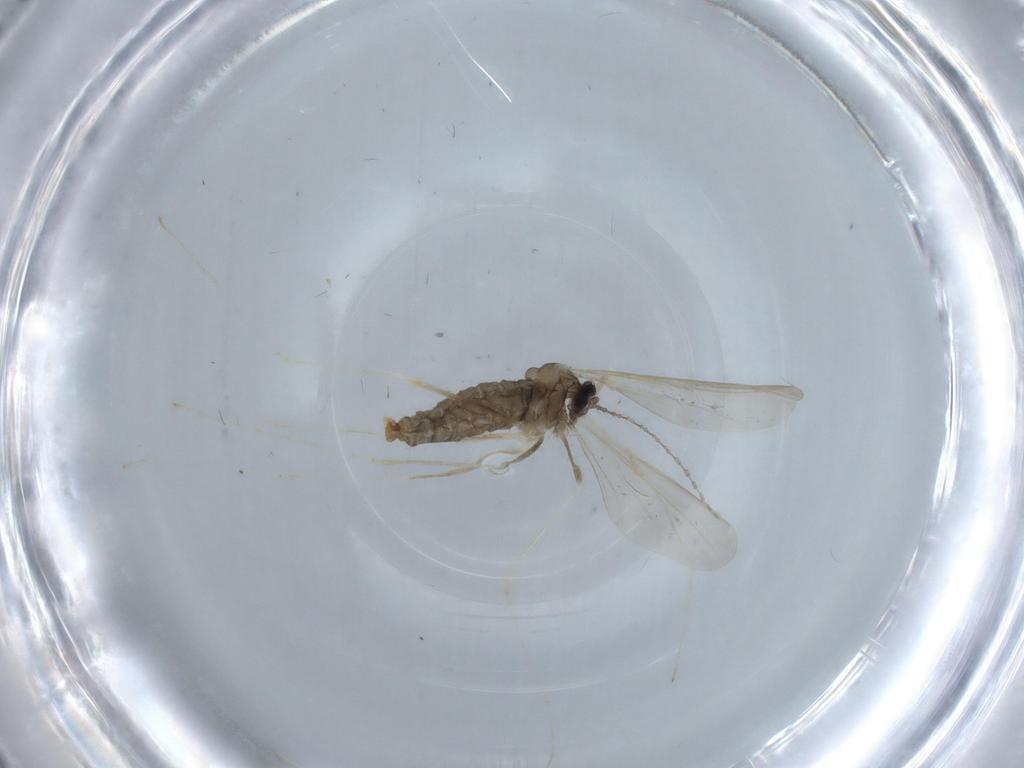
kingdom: Animalia
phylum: Arthropoda
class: Insecta
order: Diptera
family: Cecidomyiidae
